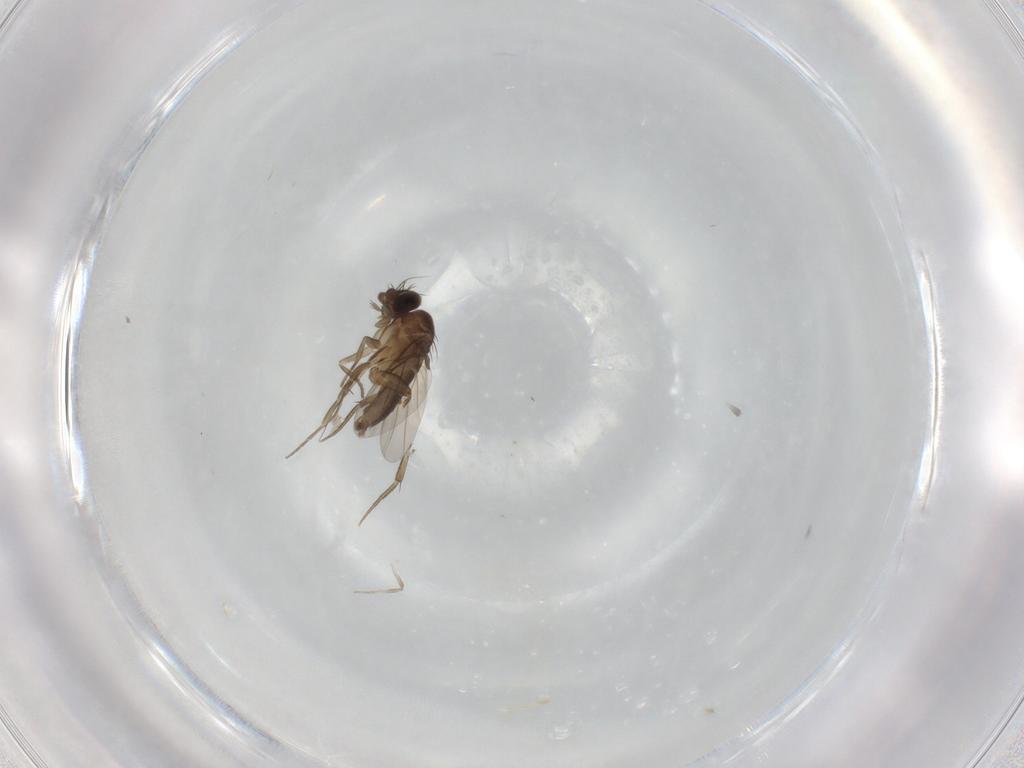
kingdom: Animalia
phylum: Arthropoda
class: Insecta
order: Diptera
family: Phoridae
